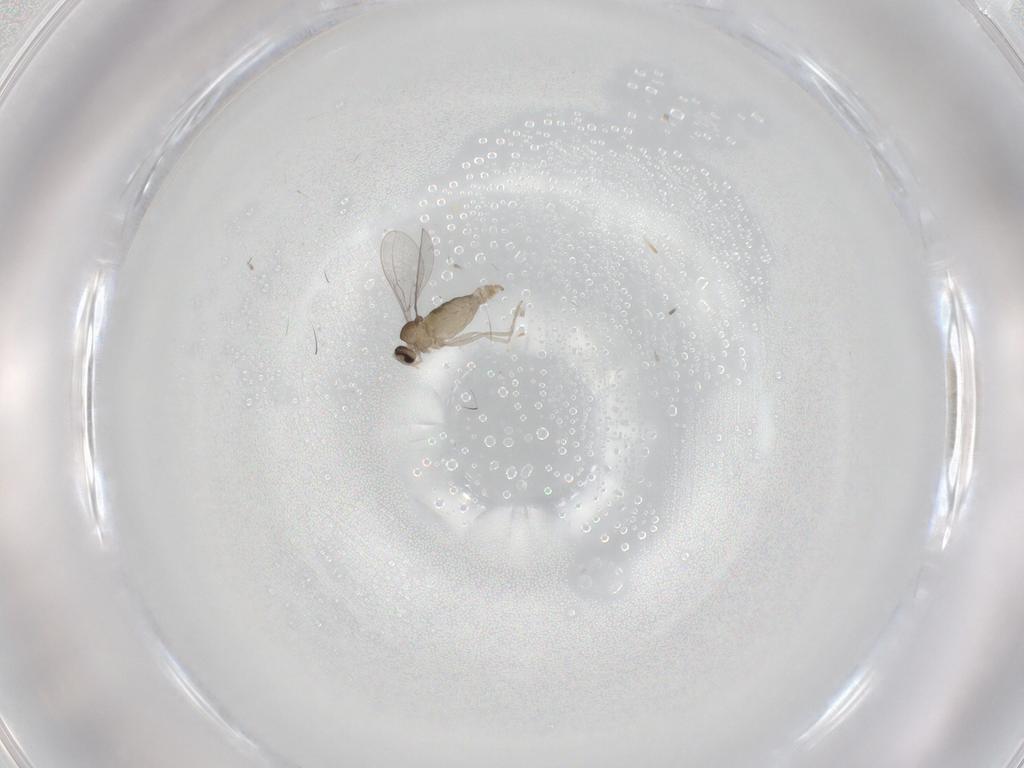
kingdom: Animalia
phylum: Arthropoda
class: Insecta
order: Diptera
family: Cecidomyiidae
